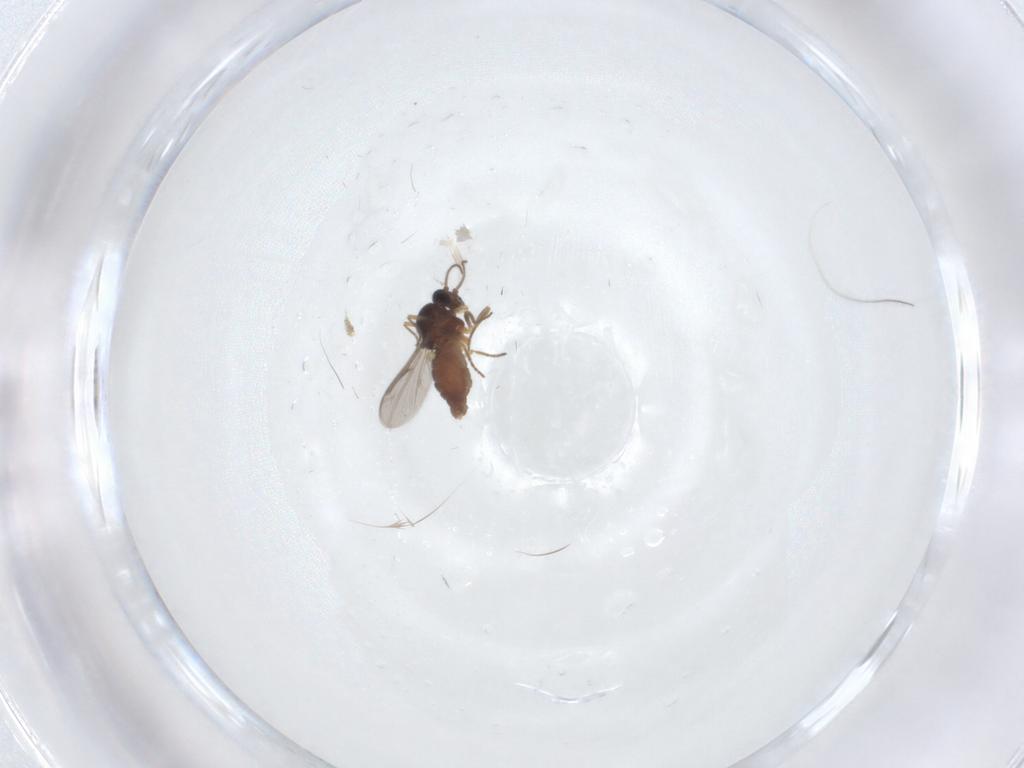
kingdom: Animalia
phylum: Arthropoda
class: Insecta
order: Diptera
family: Ceratopogonidae
